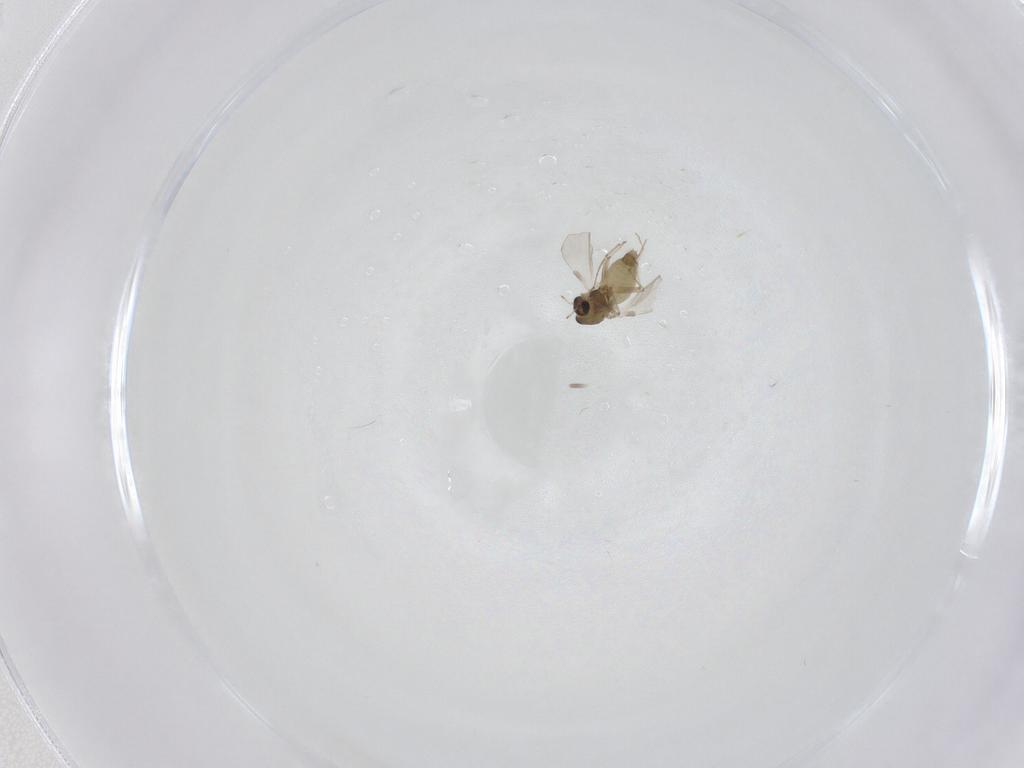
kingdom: Animalia
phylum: Arthropoda
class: Insecta
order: Diptera
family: Chironomidae
